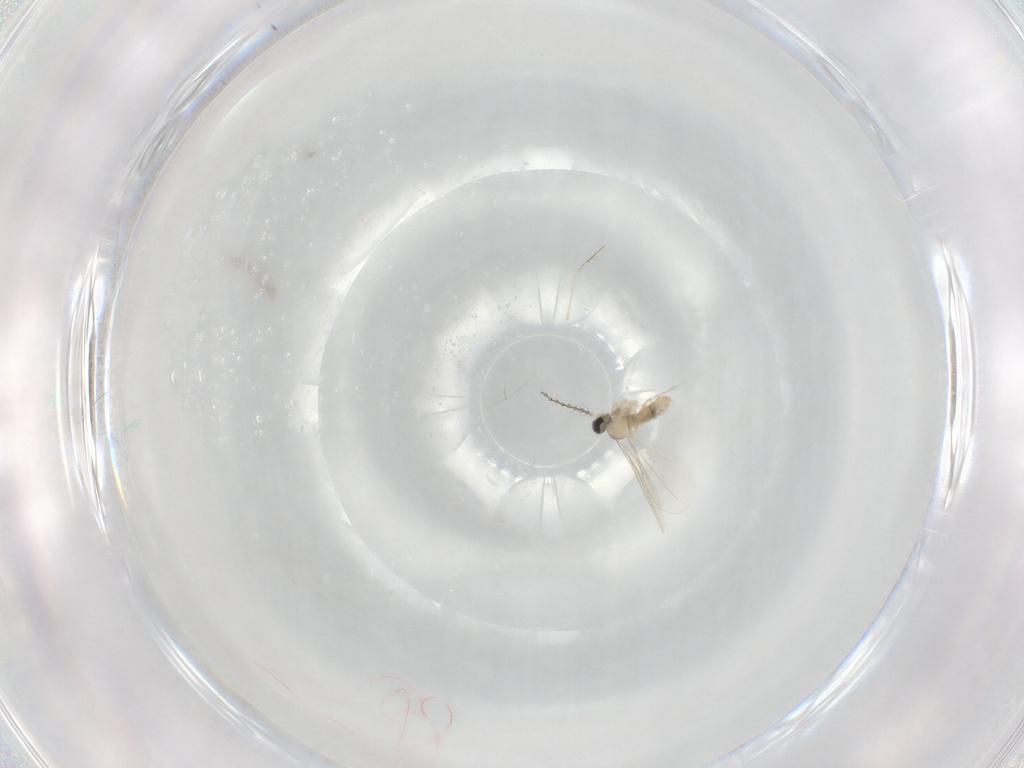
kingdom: Animalia
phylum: Arthropoda
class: Insecta
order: Diptera
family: Cecidomyiidae
